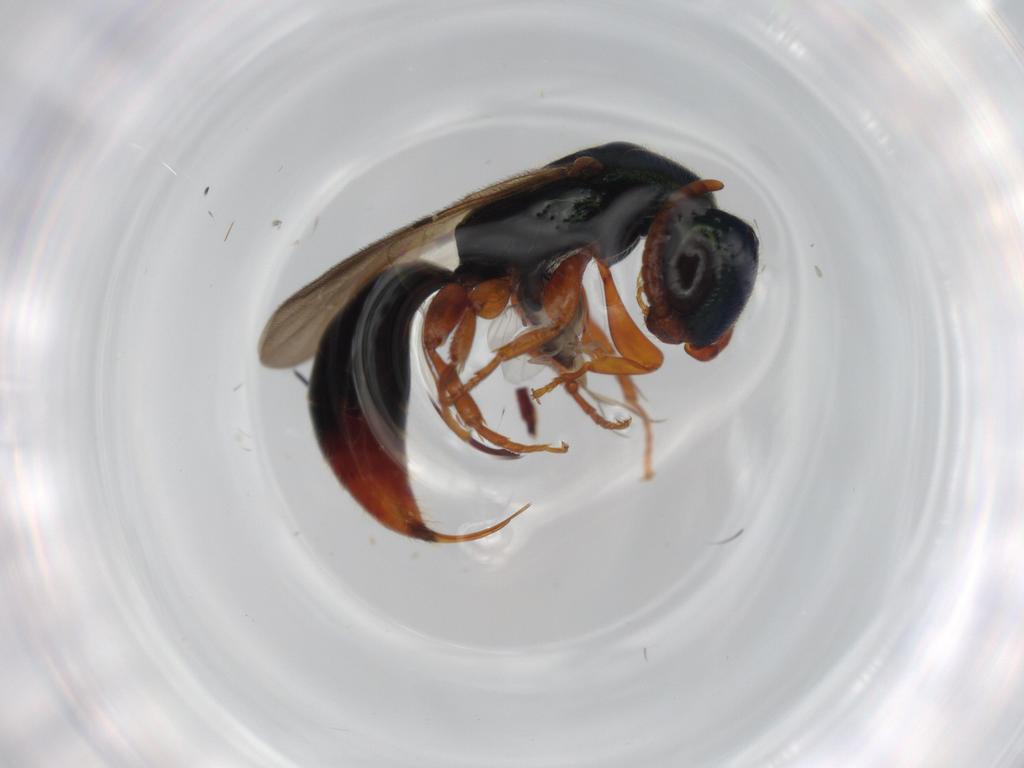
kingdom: Animalia
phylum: Arthropoda
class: Insecta
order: Hymenoptera
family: Bethylidae
